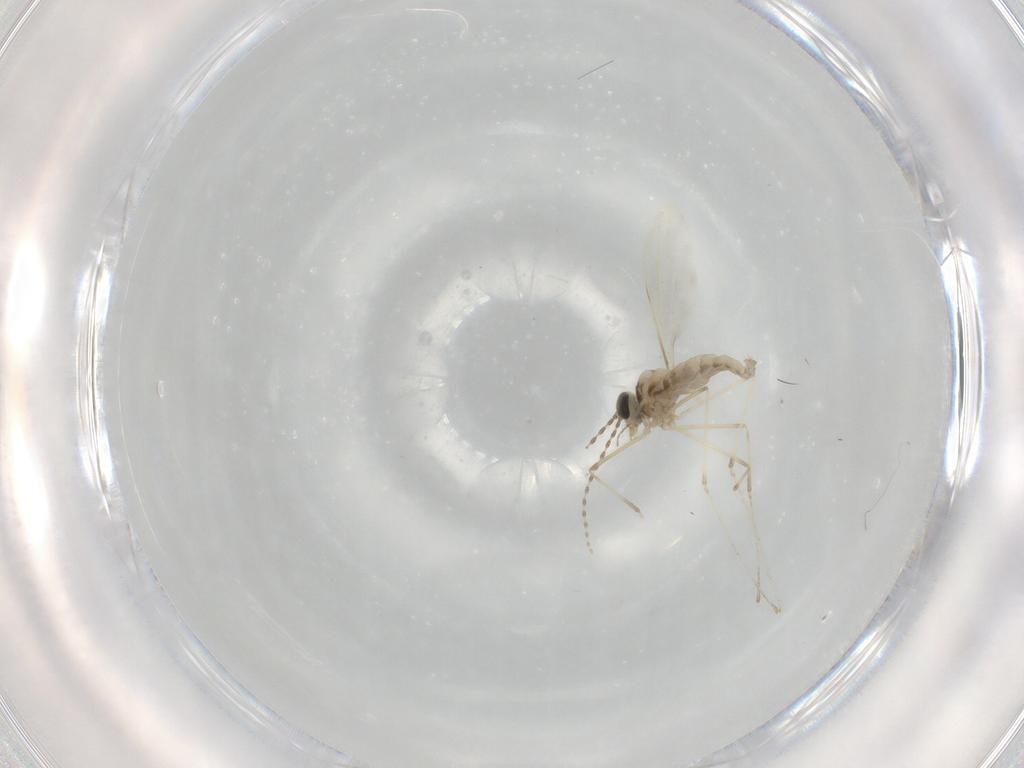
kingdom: Animalia
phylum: Arthropoda
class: Insecta
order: Diptera
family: Cecidomyiidae
